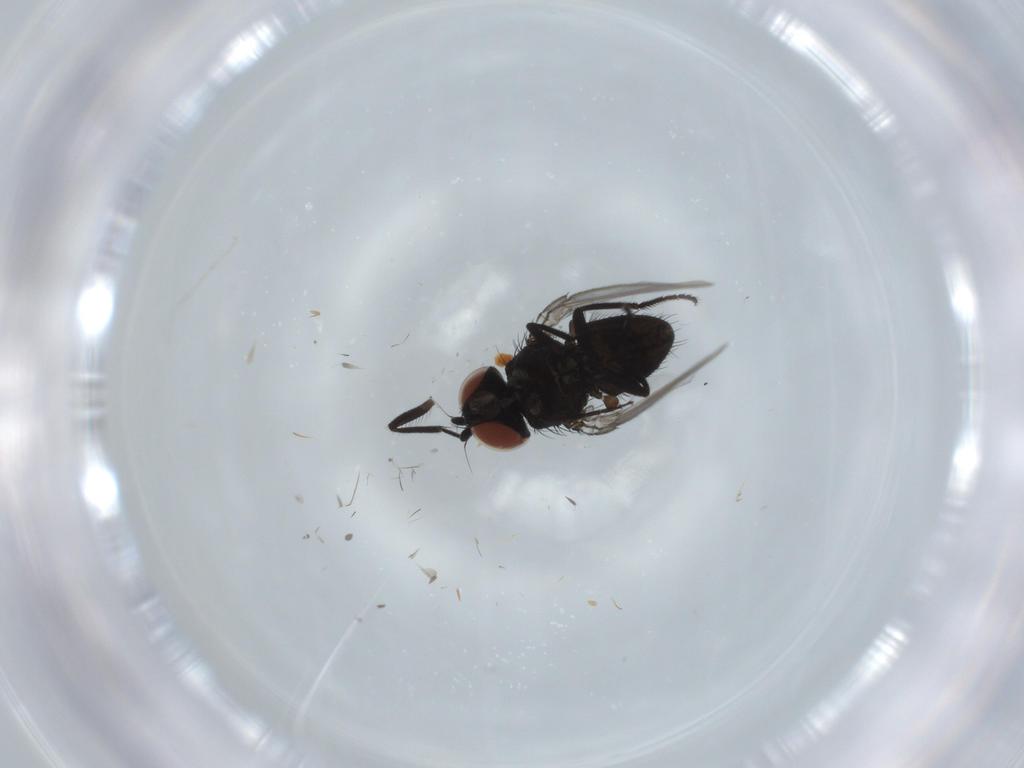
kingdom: Animalia
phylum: Arthropoda
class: Insecta
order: Diptera
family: Milichiidae
